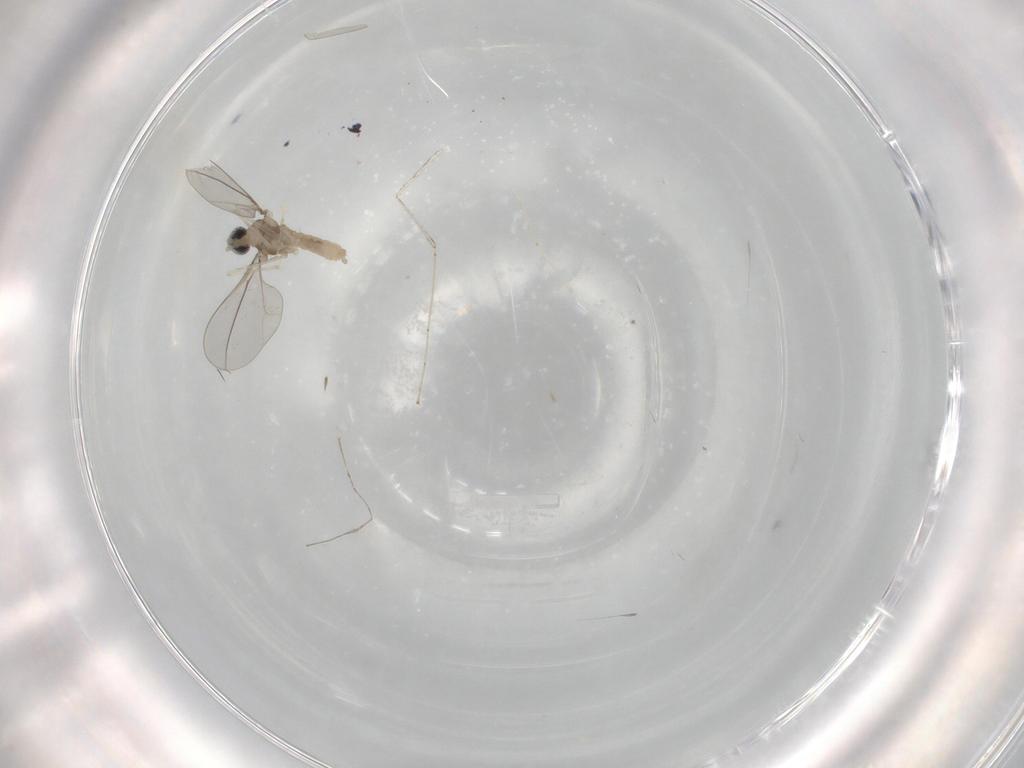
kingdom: Animalia
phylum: Arthropoda
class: Insecta
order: Diptera
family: Cecidomyiidae
